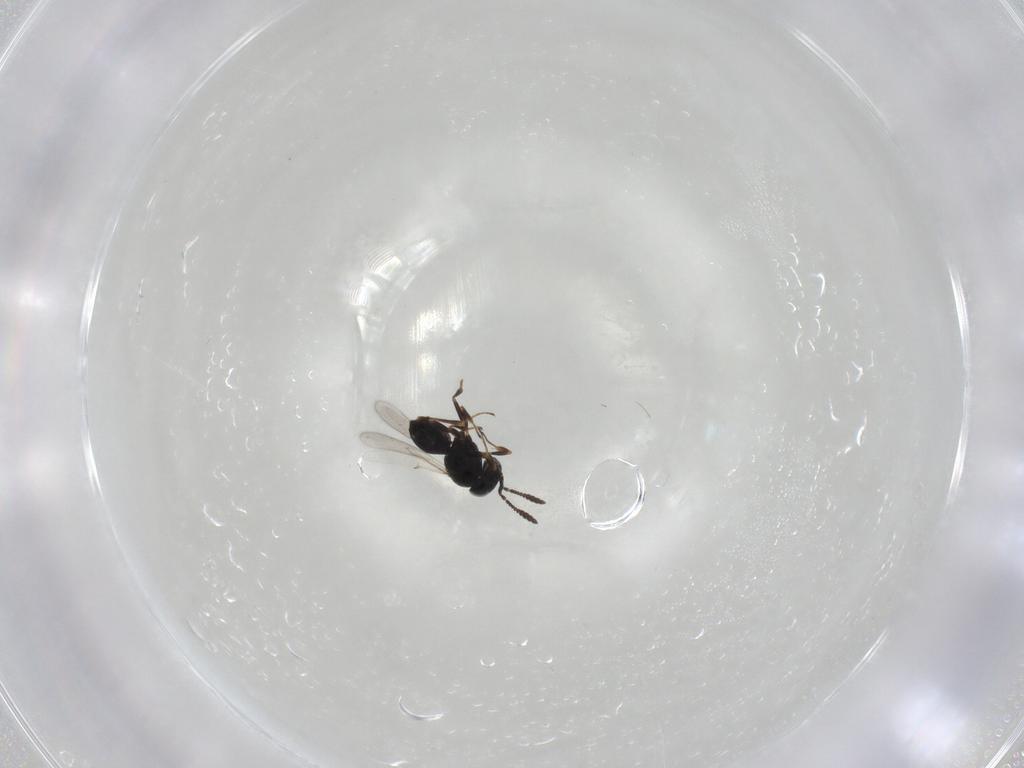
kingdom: Animalia
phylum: Arthropoda
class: Insecta
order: Hymenoptera
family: Scelionidae
